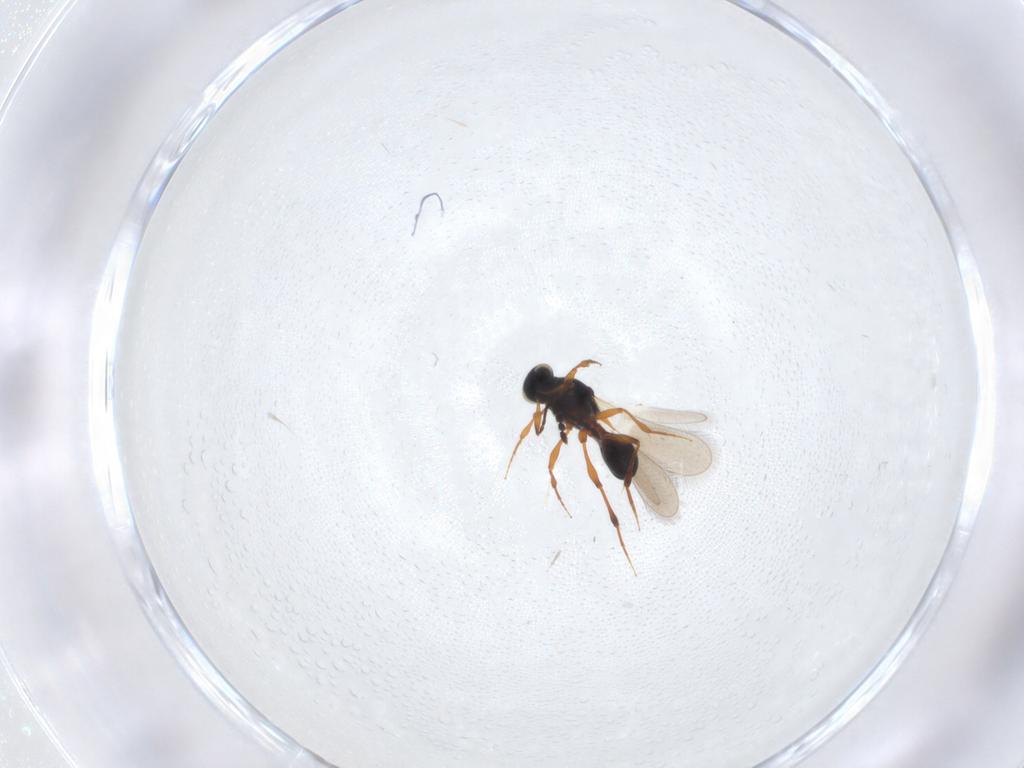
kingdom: Animalia
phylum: Arthropoda
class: Insecta
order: Hymenoptera
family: Platygastridae
